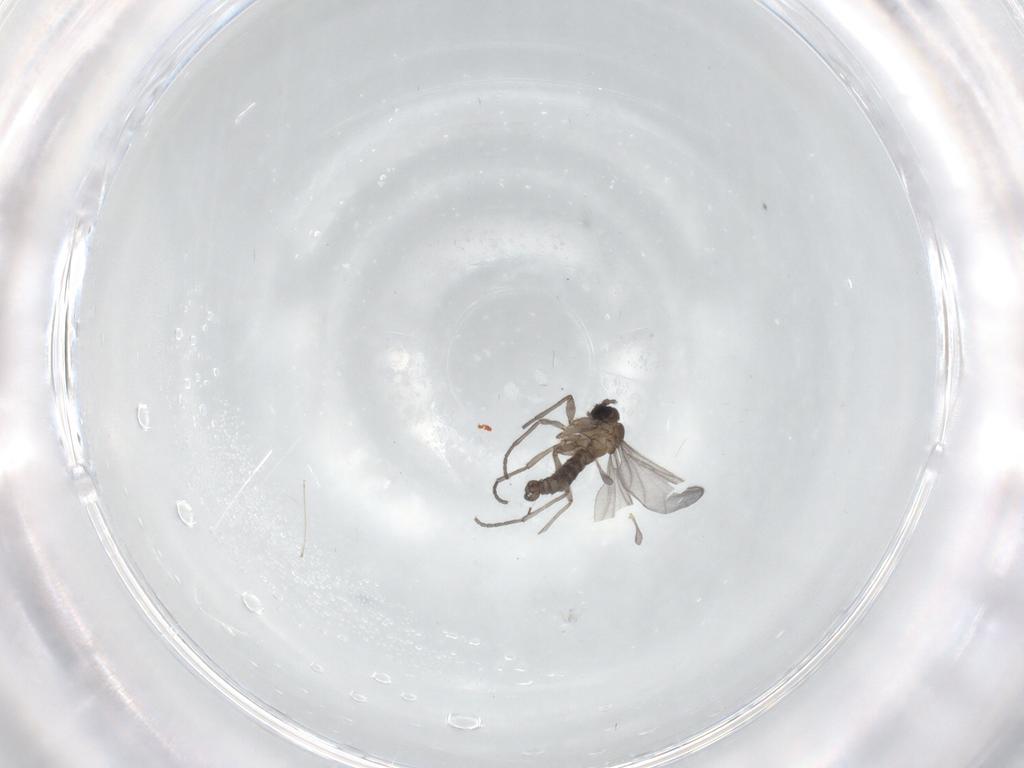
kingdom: Animalia
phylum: Arthropoda
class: Insecta
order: Diptera
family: Sciaridae
